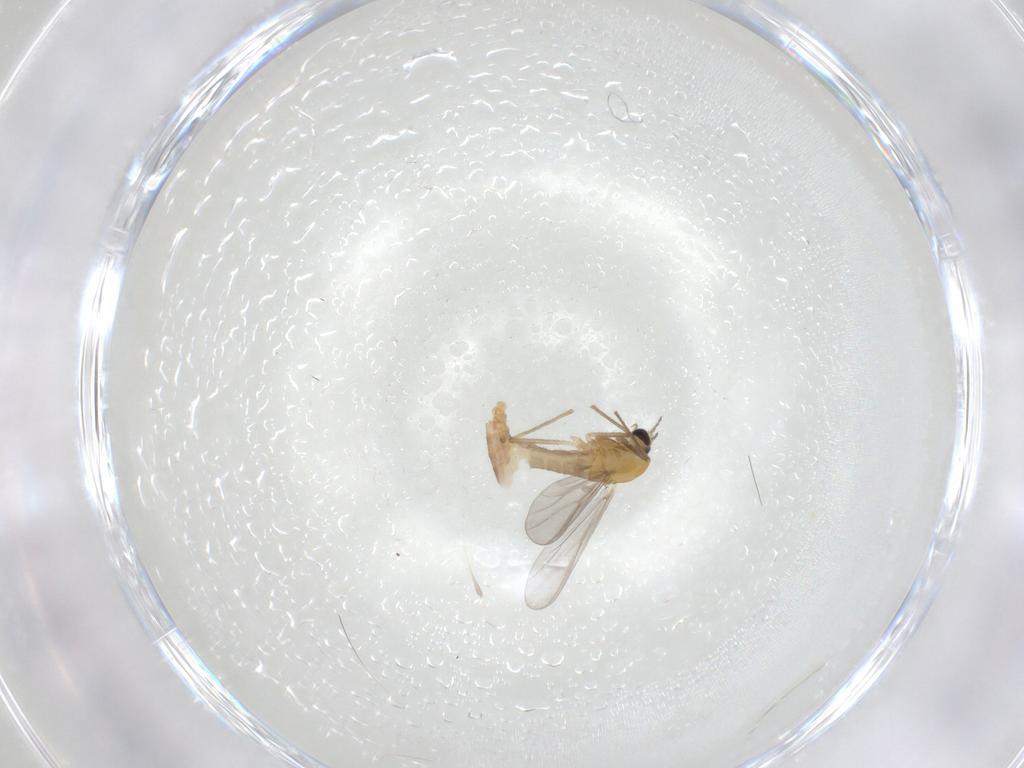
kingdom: Animalia
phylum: Arthropoda
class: Insecta
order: Diptera
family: Chironomidae
